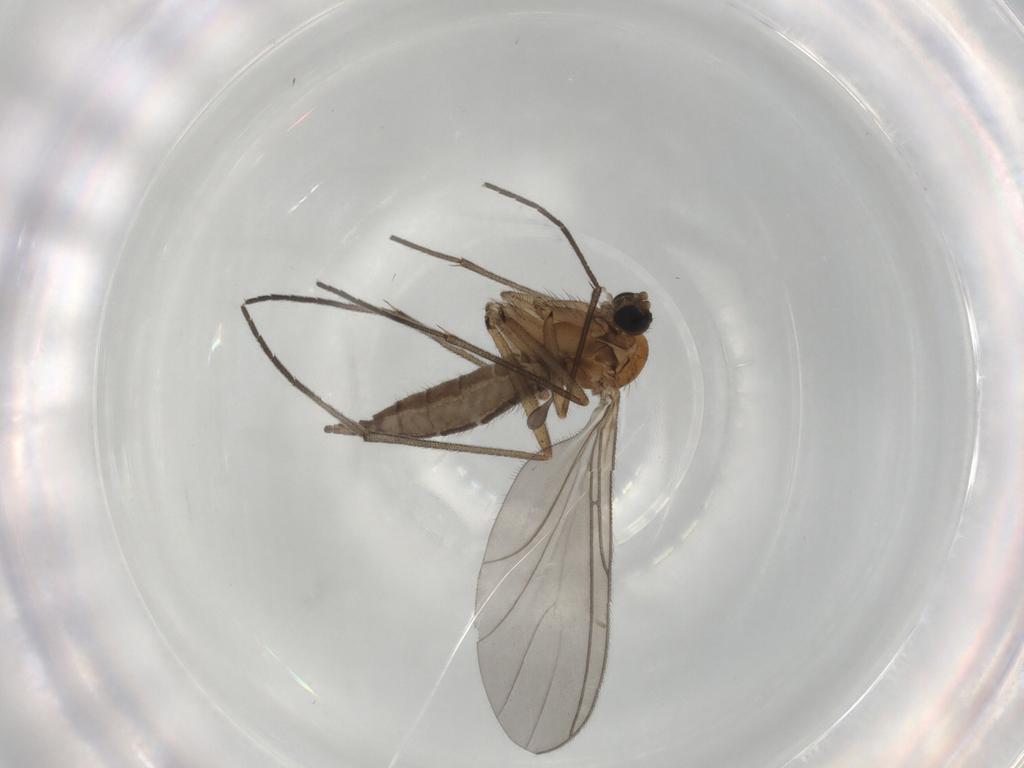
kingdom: Animalia
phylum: Arthropoda
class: Insecta
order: Diptera
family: Sciaridae
